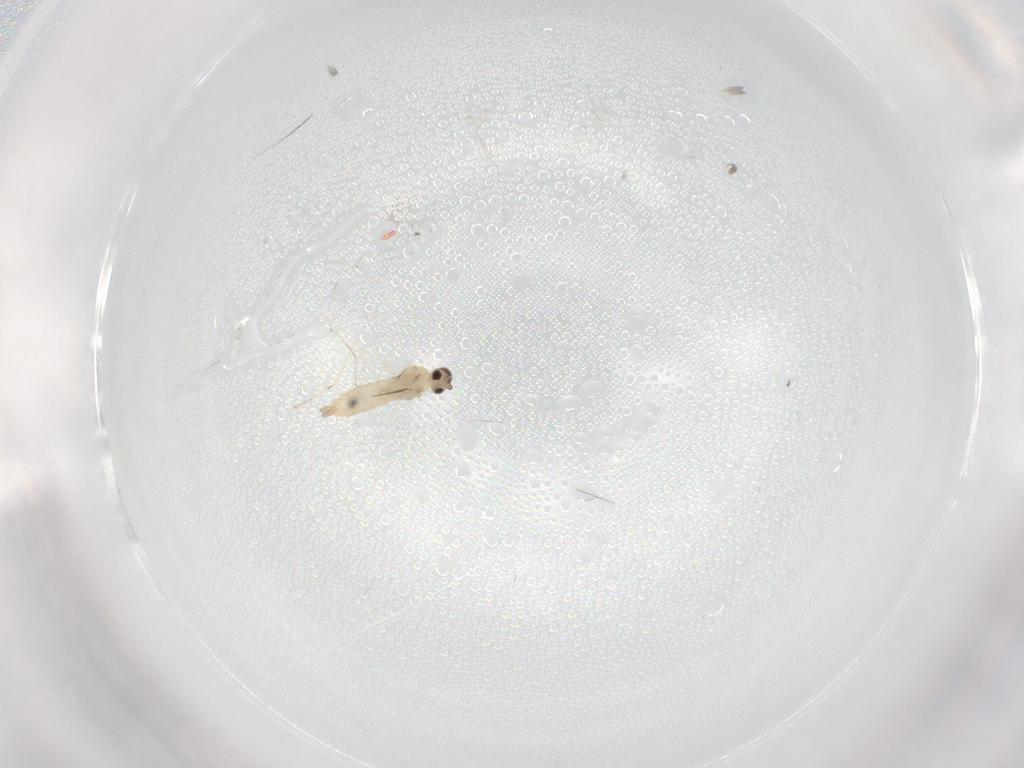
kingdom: Animalia
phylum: Arthropoda
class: Insecta
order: Diptera
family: Cecidomyiidae
